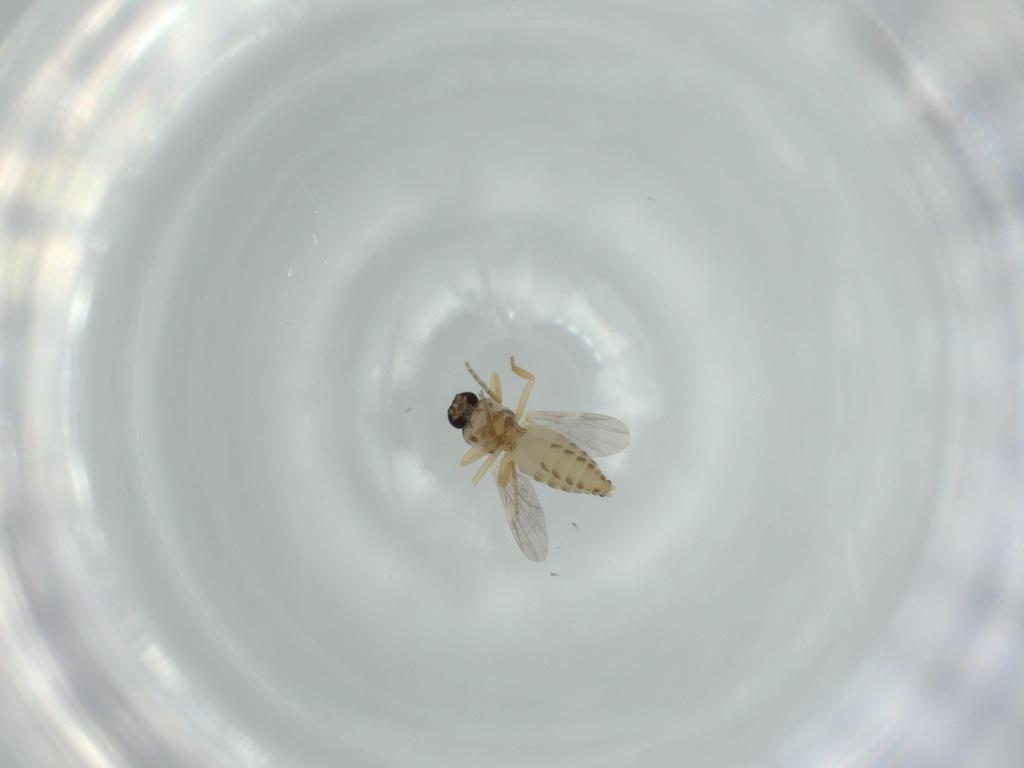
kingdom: Animalia
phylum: Arthropoda
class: Insecta
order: Diptera
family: Ceratopogonidae
